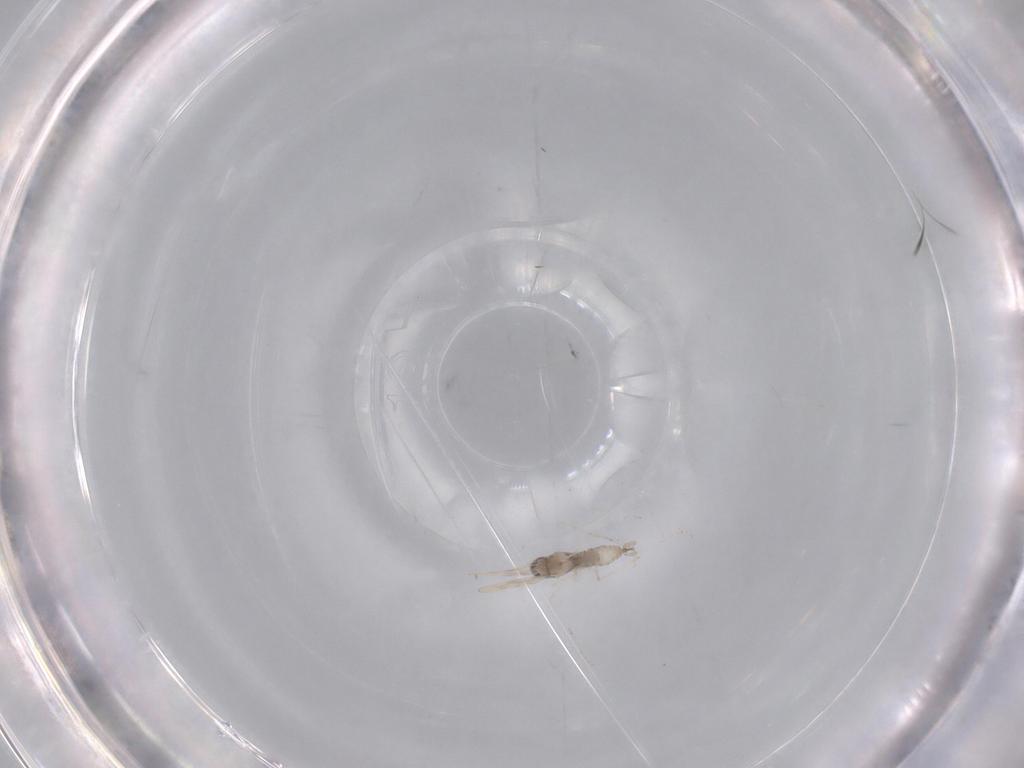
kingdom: Animalia
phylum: Arthropoda
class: Insecta
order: Diptera
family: Cecidomyiidae
